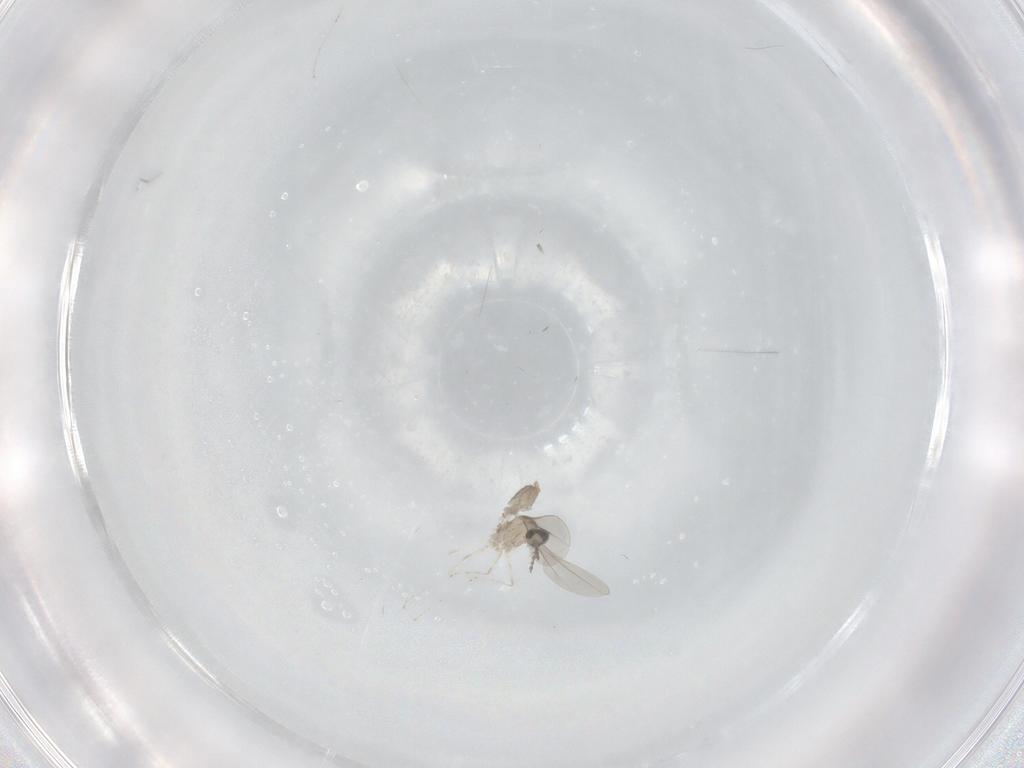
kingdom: Animalia
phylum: Arthropoda
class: Insecta
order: Diptera
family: Cecidomyiidae
